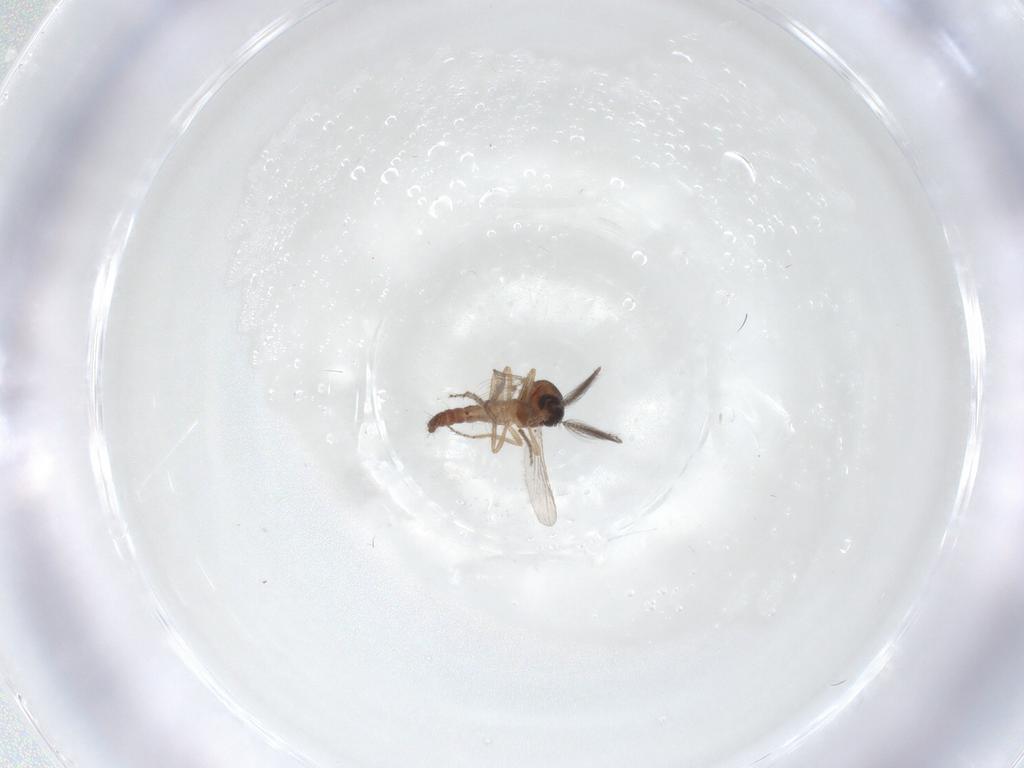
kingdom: Animalia
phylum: Arthropoda
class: Insecta
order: Diptera
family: Ceratopogonidae
